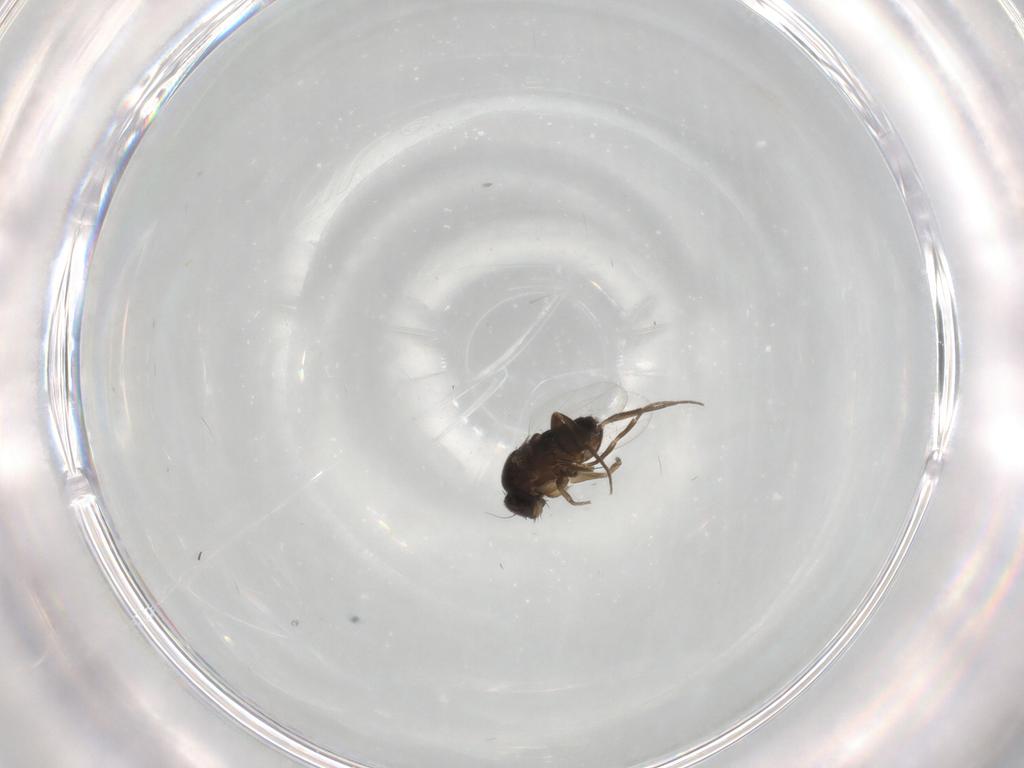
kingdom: Animalia
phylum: Arthropoda
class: Insecta
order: Diptera
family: Phoridae
